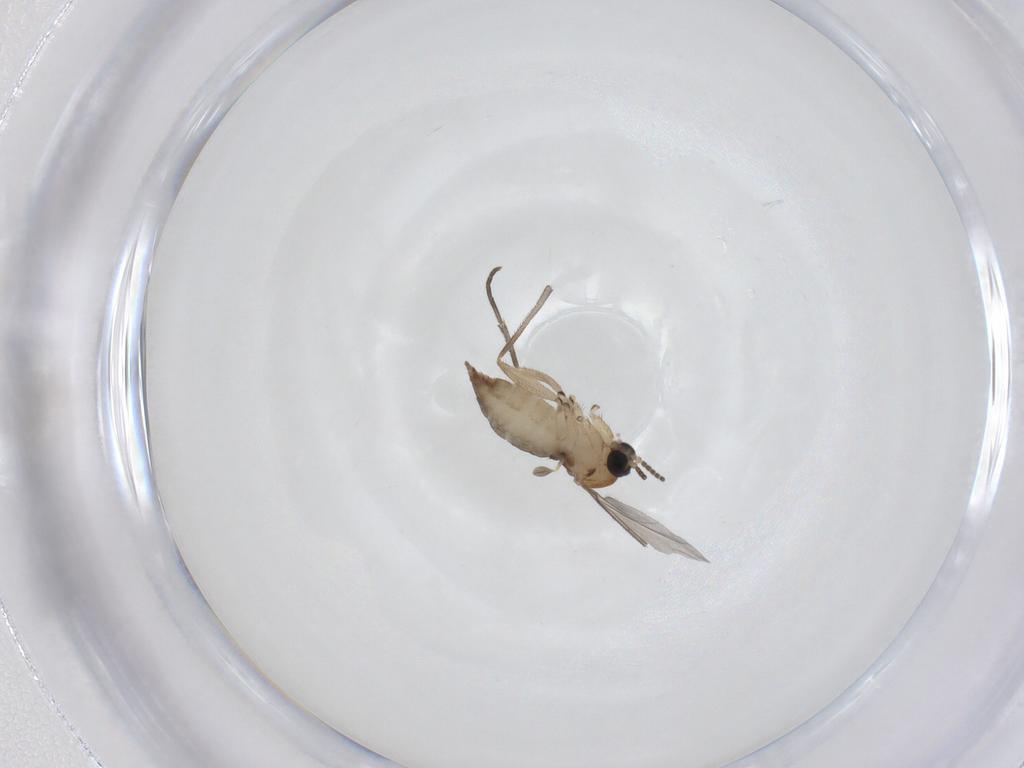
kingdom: Animalia
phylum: Arthropoda
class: Insecta
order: Diptera
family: Sciaridae
